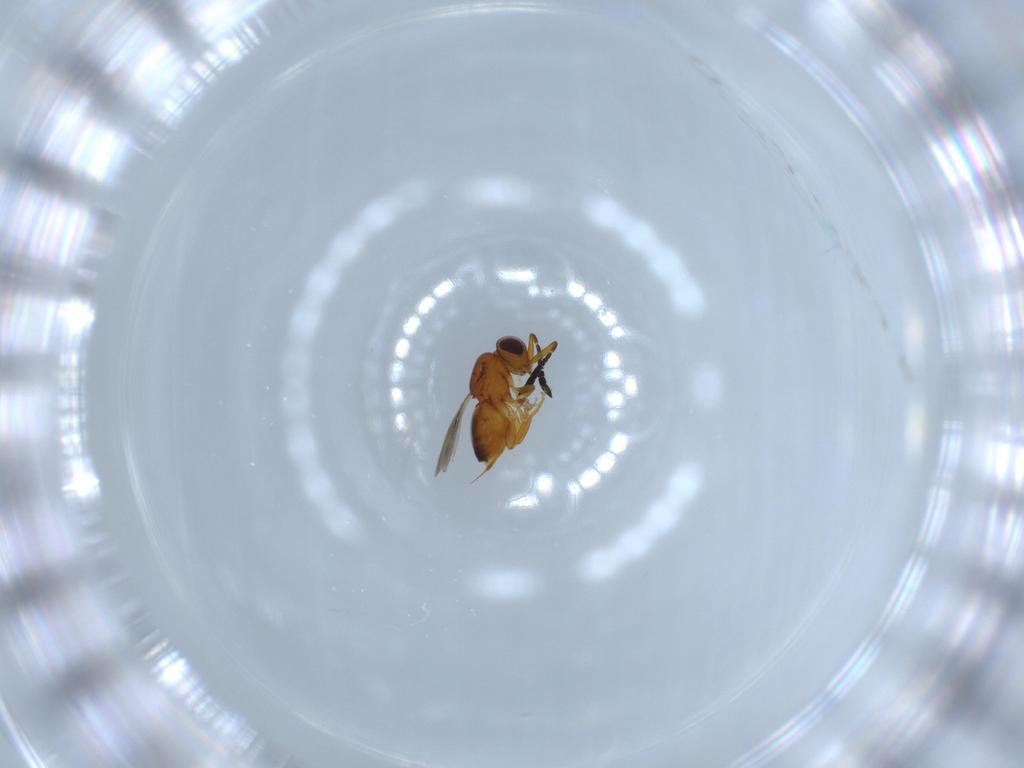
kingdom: Animalia
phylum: Arthropoda
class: Insecta
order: Hymenoptera
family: Ceraphronidae
